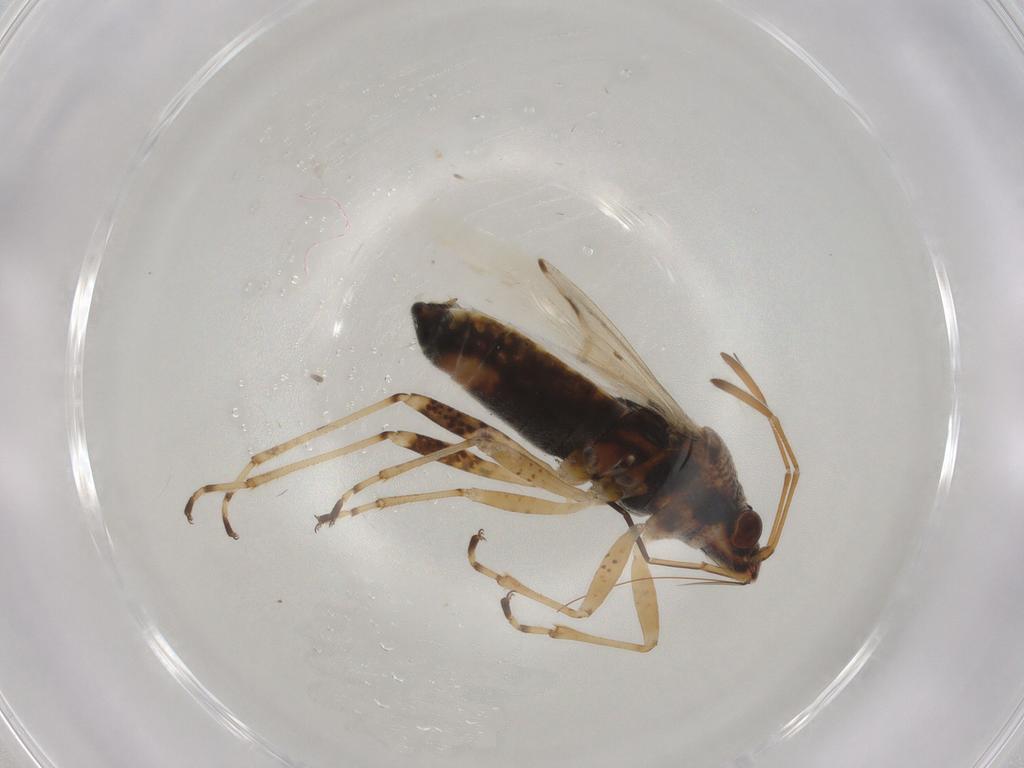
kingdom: Animalia
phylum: Arthropoda
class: Insecta
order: Hemiptera
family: Lygaeidae
